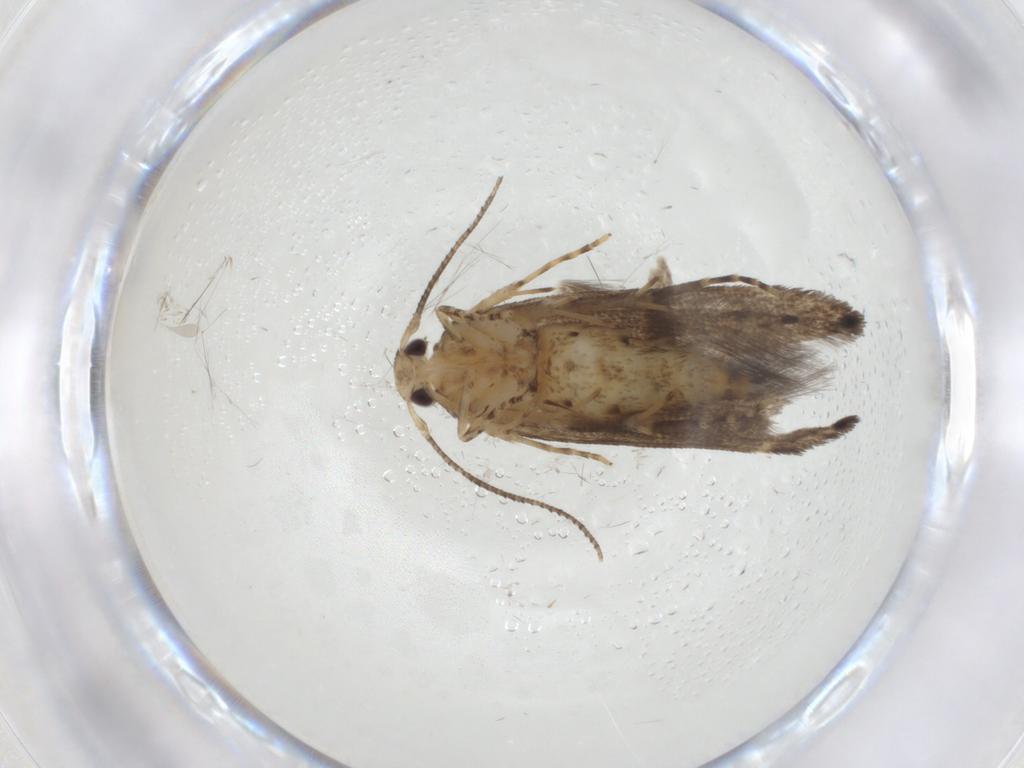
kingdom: Animalia
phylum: Arthropoda
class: Insecta
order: Lepidoptera
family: Cosmopterigidae
